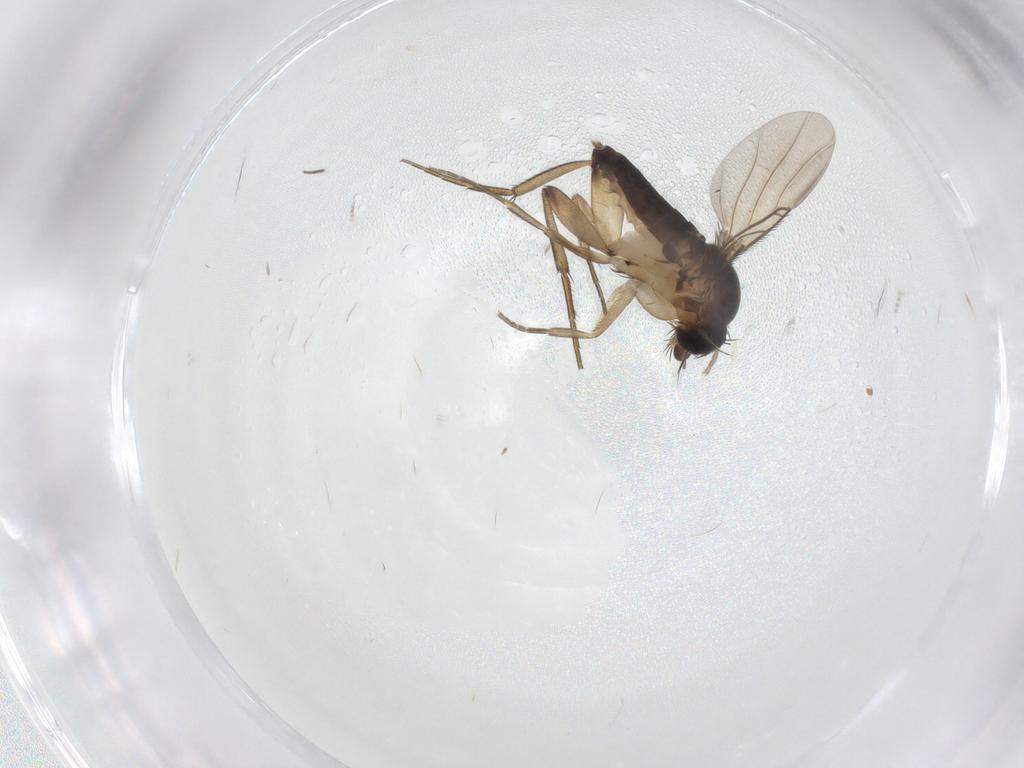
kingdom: Animalia
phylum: Arthropoda
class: Insecta
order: Diptera
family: Phoridae
